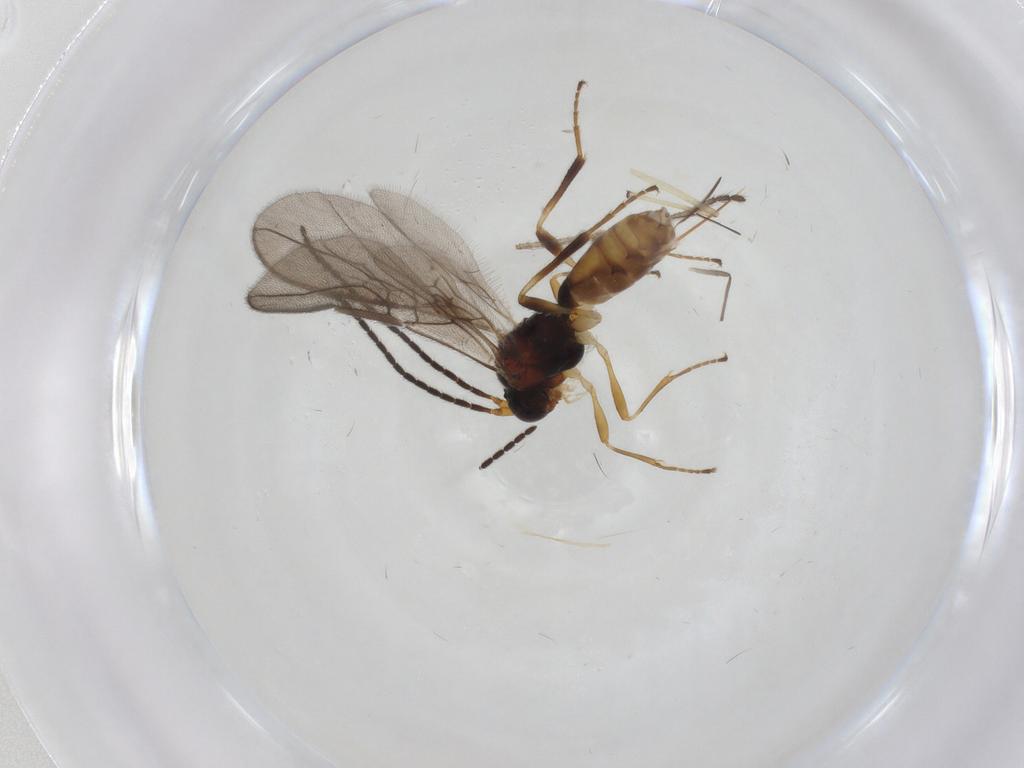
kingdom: Animalia
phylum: Arthropoda
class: Insecta
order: Hymenoptera
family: Braconidae
